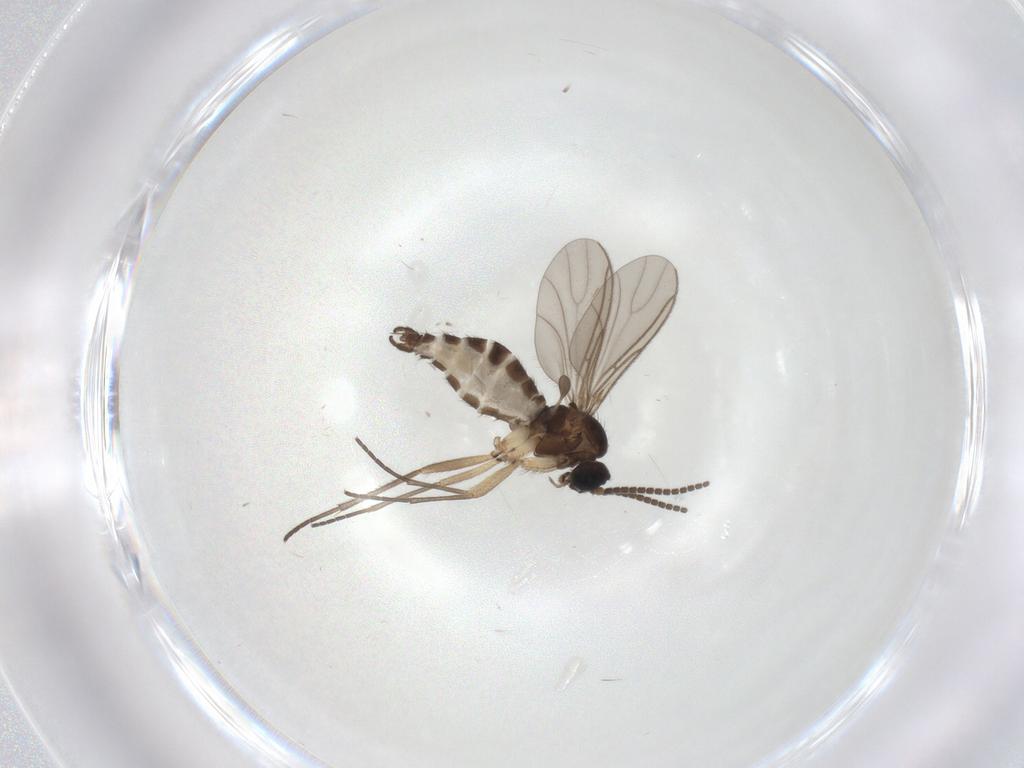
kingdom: Animalia
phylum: Arthropoda
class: Insecta
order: Diptera
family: Sciaridae
